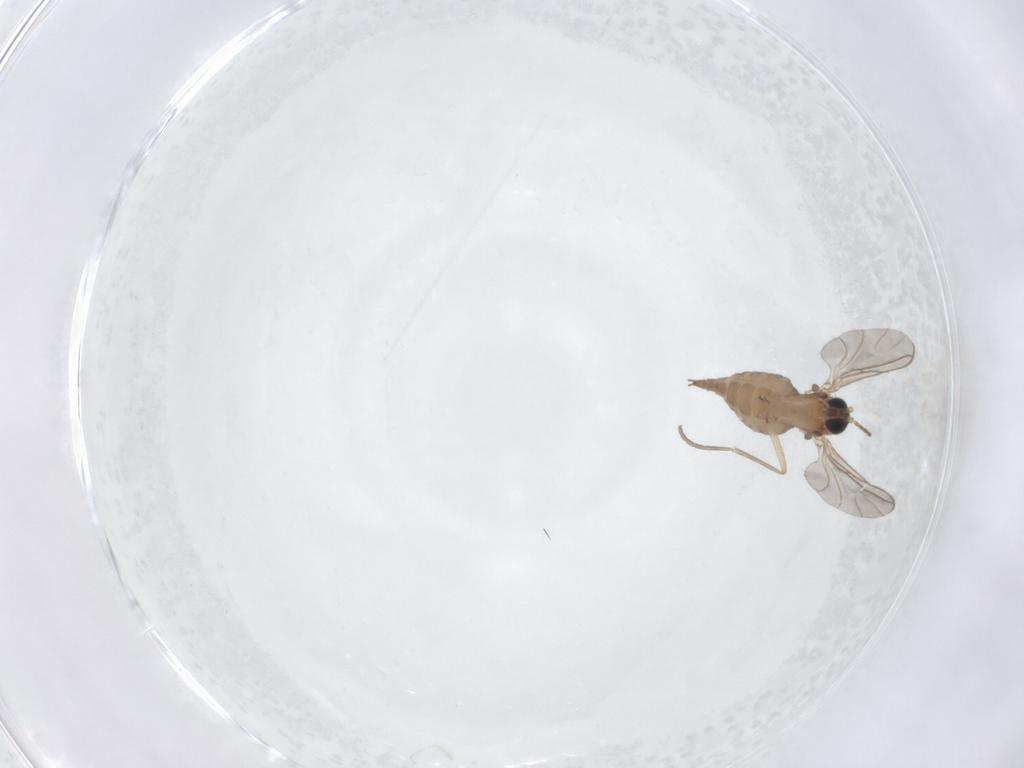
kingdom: Animalia
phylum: Arthropoda
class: Insecta
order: Diptera
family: Sciaridae
